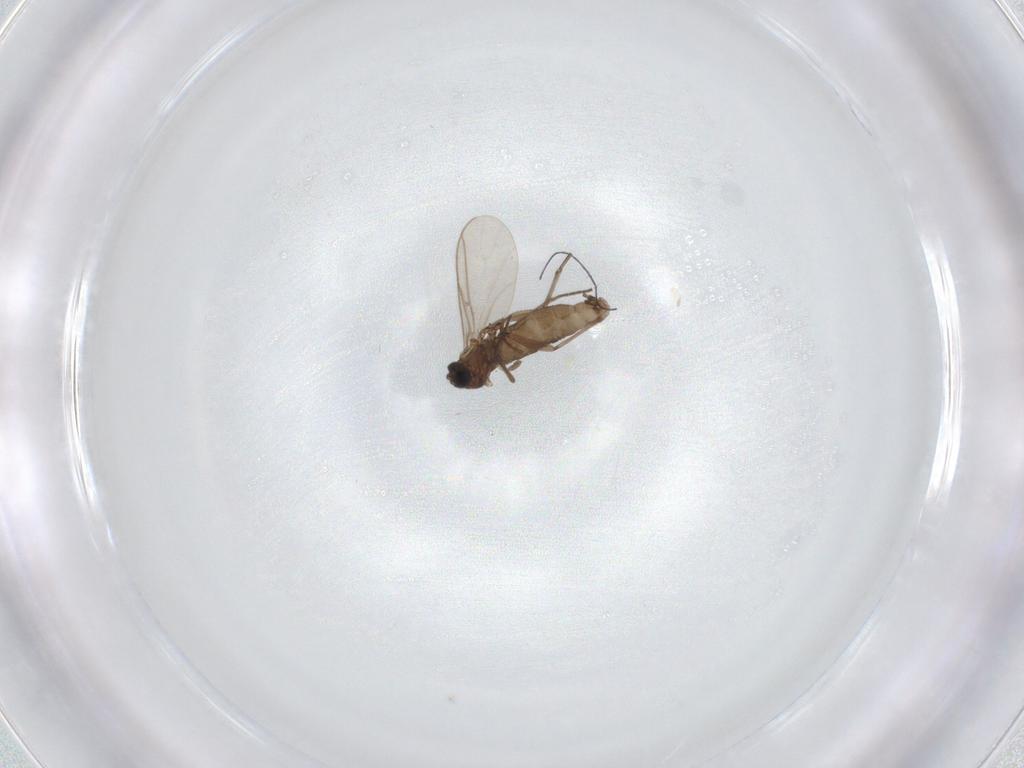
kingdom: Animalia
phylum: Arthropoda
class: Insecta
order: Diptera
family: Sphaeroceridae
